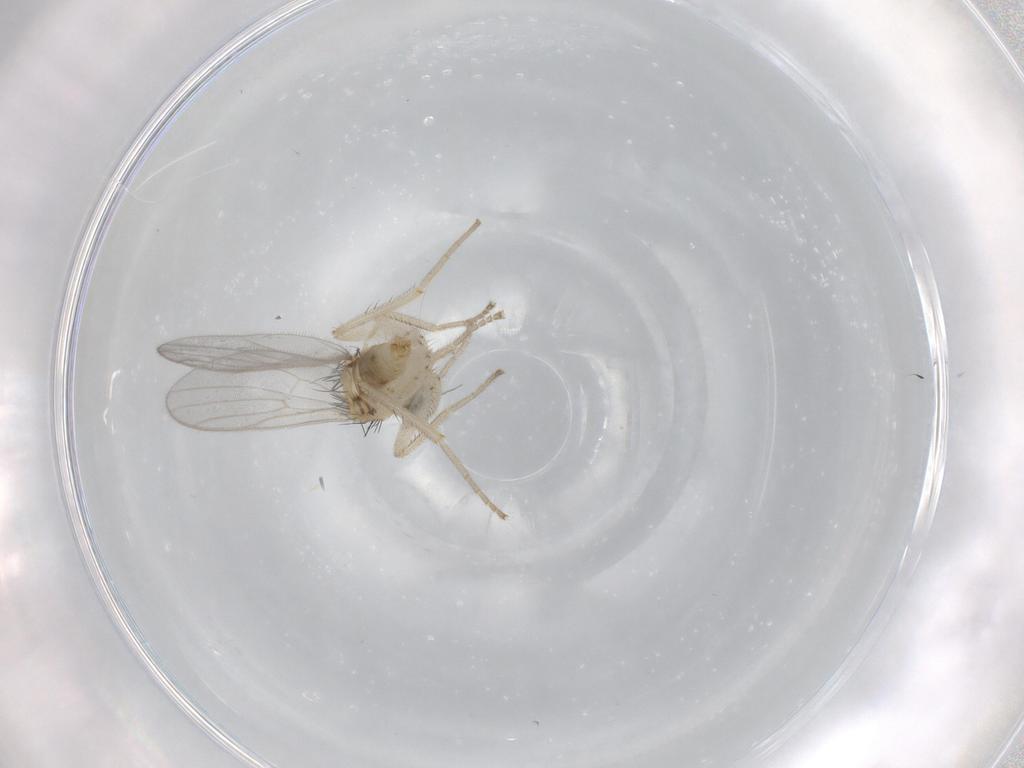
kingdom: Animalia
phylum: Arthropoda
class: Insecta
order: Diptera
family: Hybotidae
